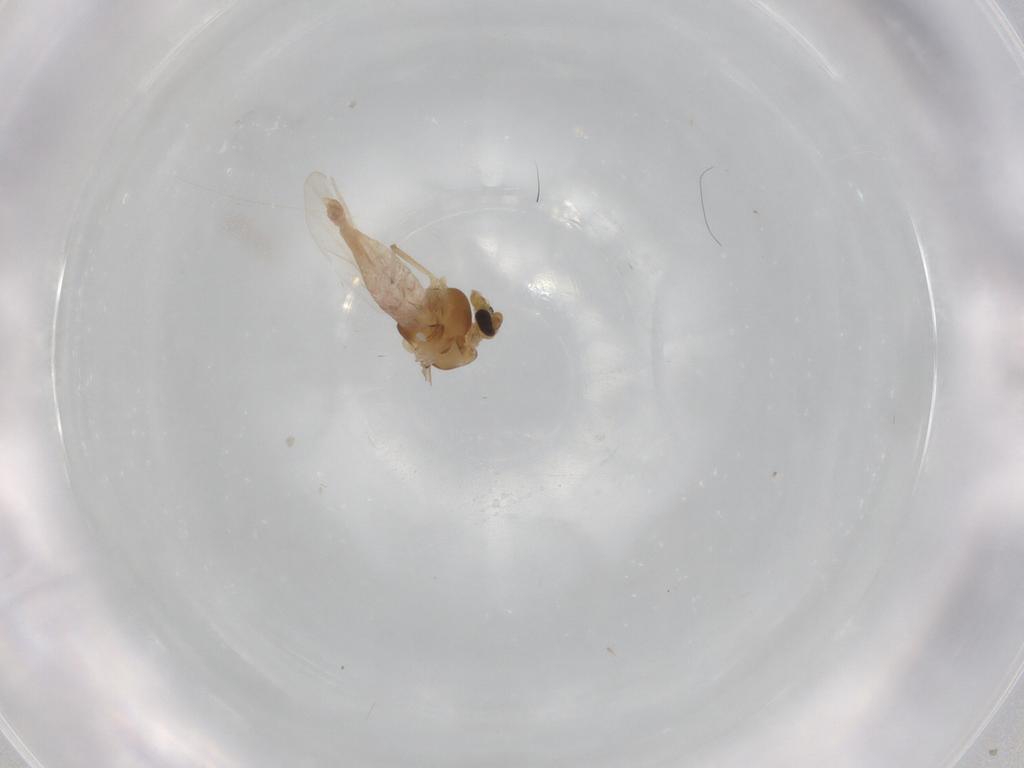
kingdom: Animalia
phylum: Arthropoda
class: Insecta
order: Diptera
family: Chironomidae
